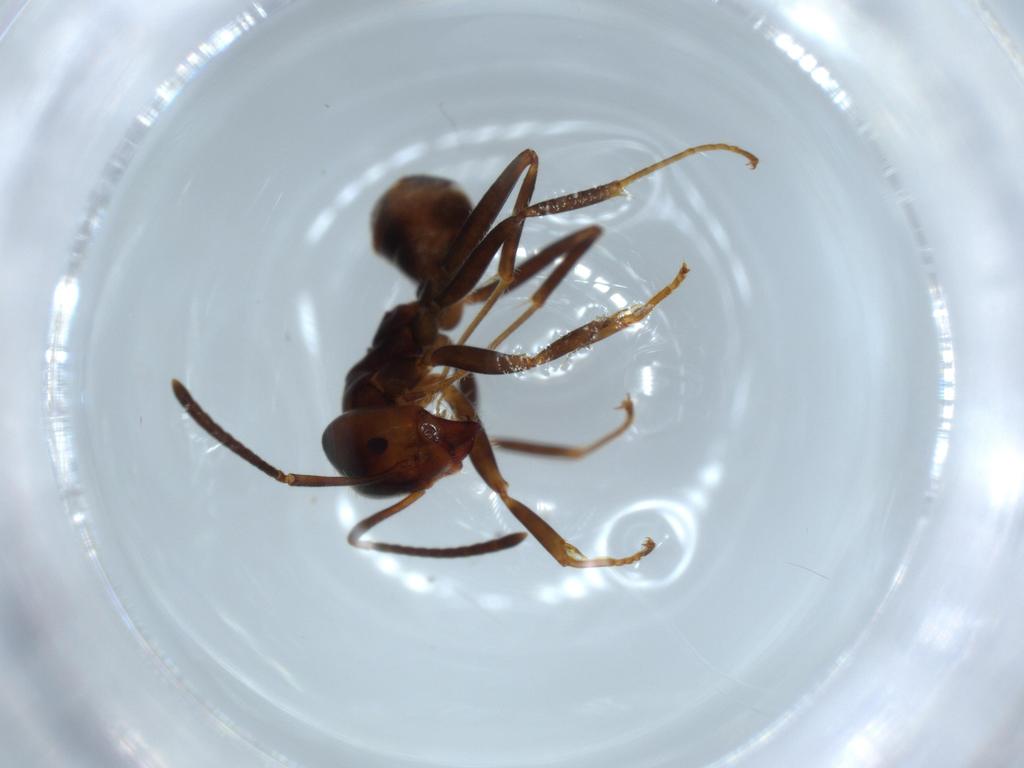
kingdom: Animalia
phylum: Arthropoda
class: Insecta
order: Hymenoptera
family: Formicidae
